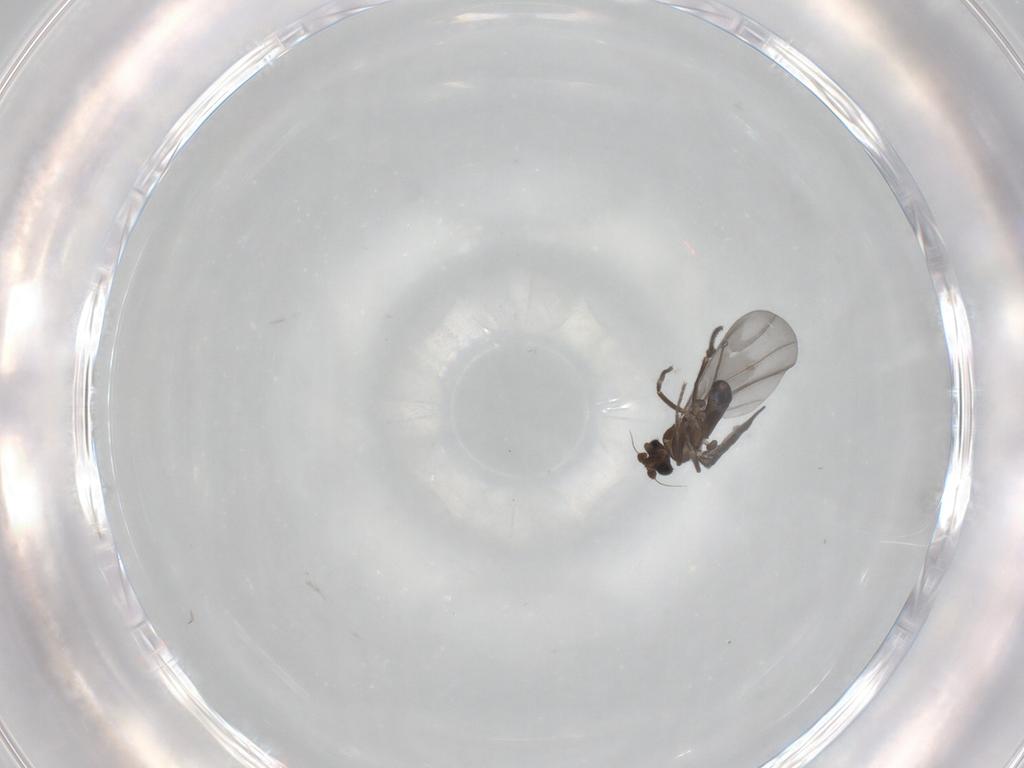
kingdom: Animalia
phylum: Arthropoda
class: Insecta
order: Diptera
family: Phoridae
